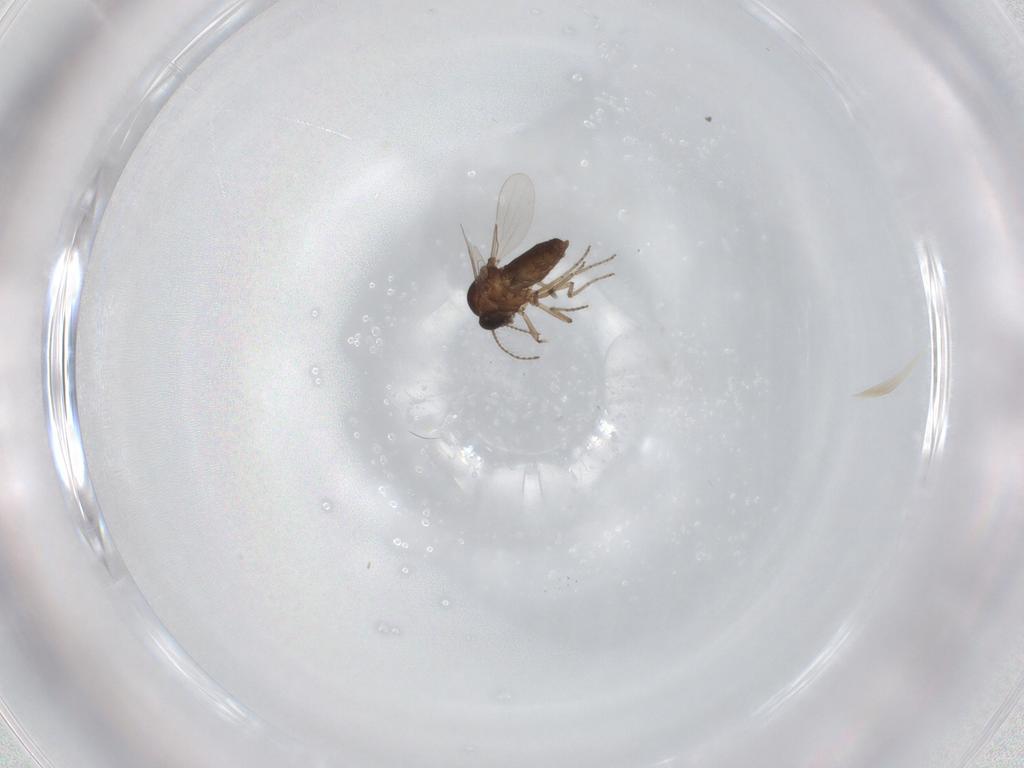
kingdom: Animalia
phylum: Arthropoda
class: Insecta
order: Diptera
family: Ceratopogonidae
